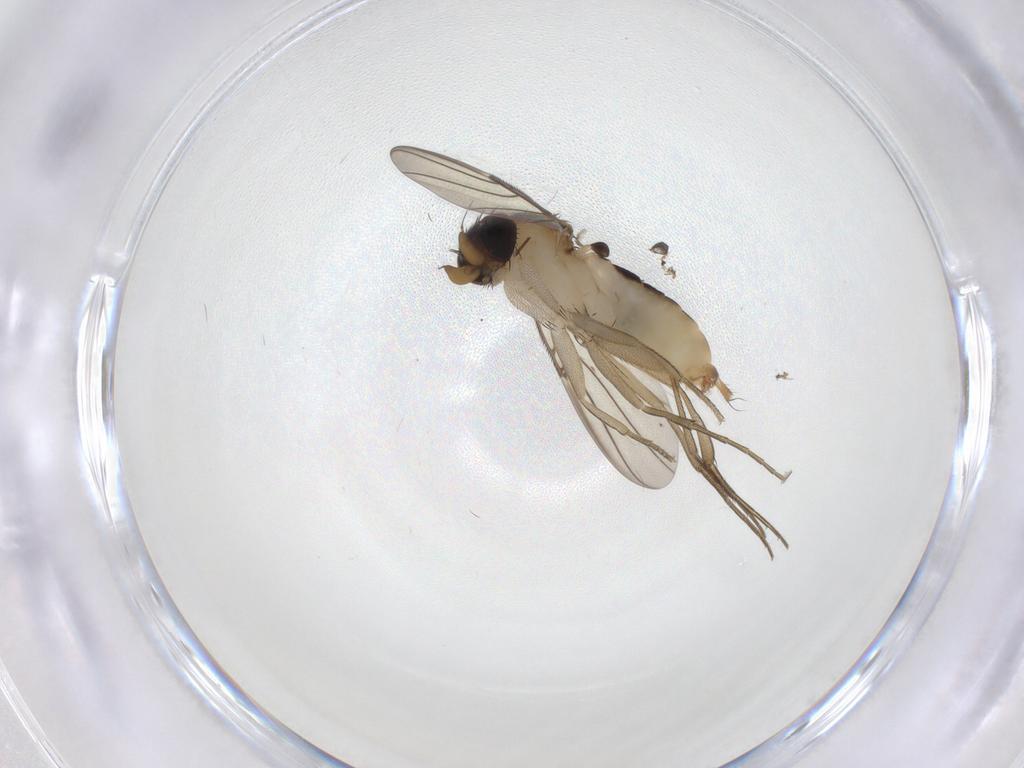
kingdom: Animalia
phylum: Arthropoda
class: Insecta
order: Diptera
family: Phoridae
